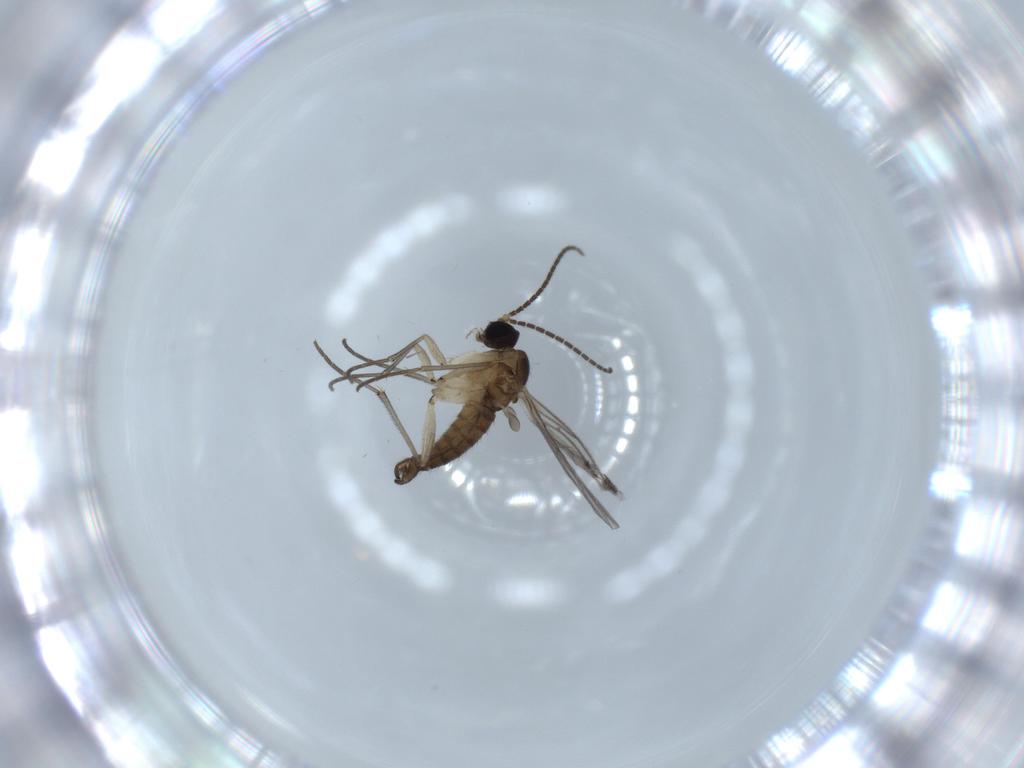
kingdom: Animalia
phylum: Arthropoda
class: Insecta
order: Diptera
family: Sciaridae
